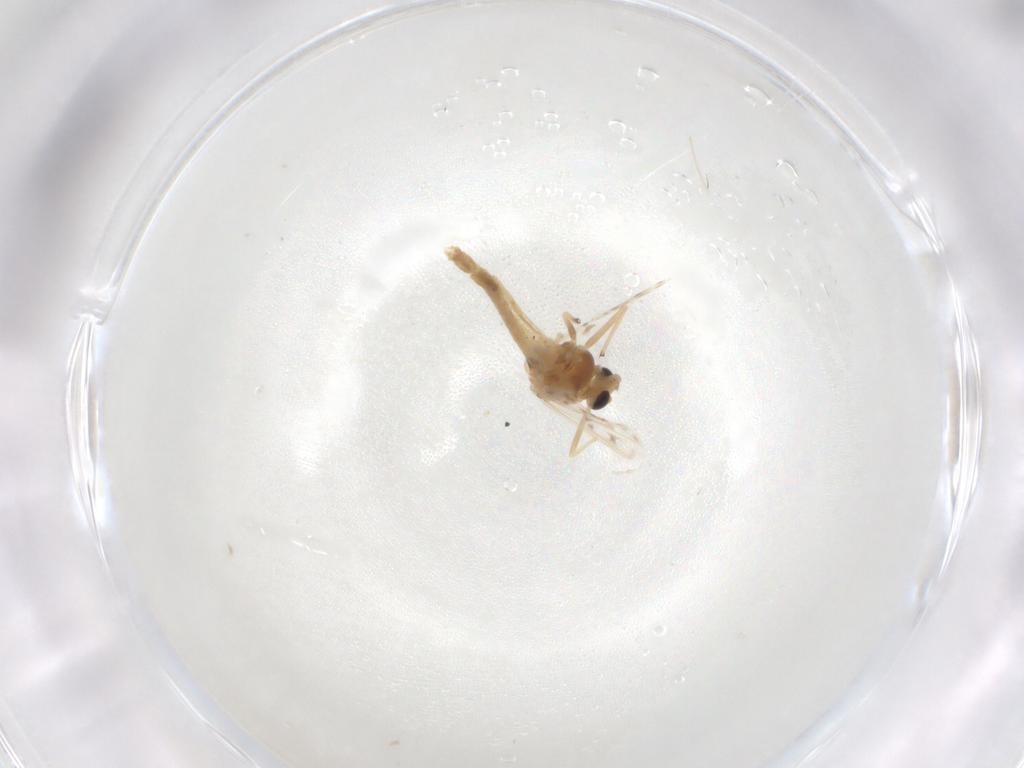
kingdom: Animalia
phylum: Arthropoda
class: Insecta
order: Diptera
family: Chironomidae
